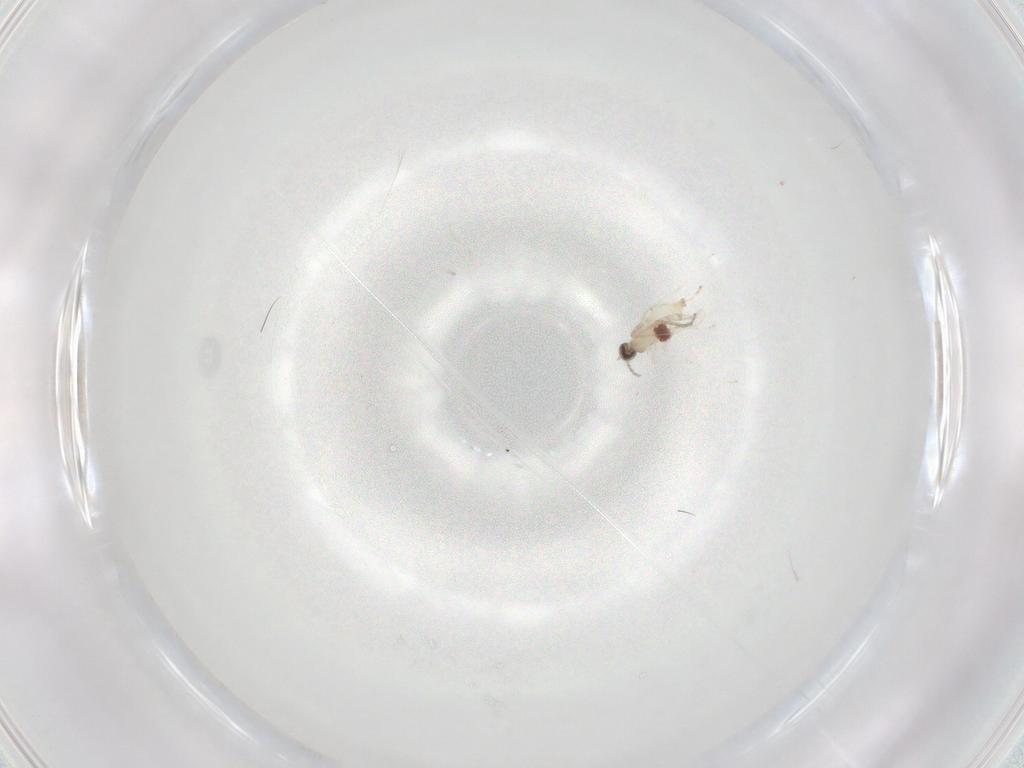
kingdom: Animalia
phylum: Arthropoda
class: Insecta
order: Diptera
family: Cecidomyiidae
